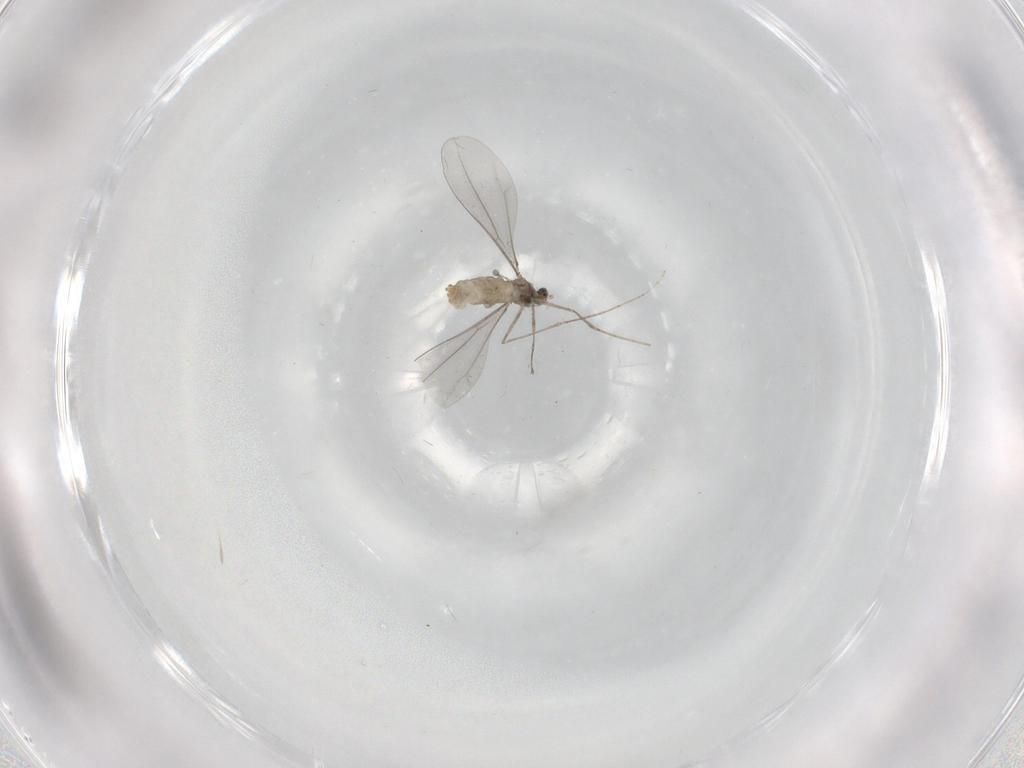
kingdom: Animalia
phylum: Arthropoda
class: Insecta
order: Diptera
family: Cecidomyiidae
